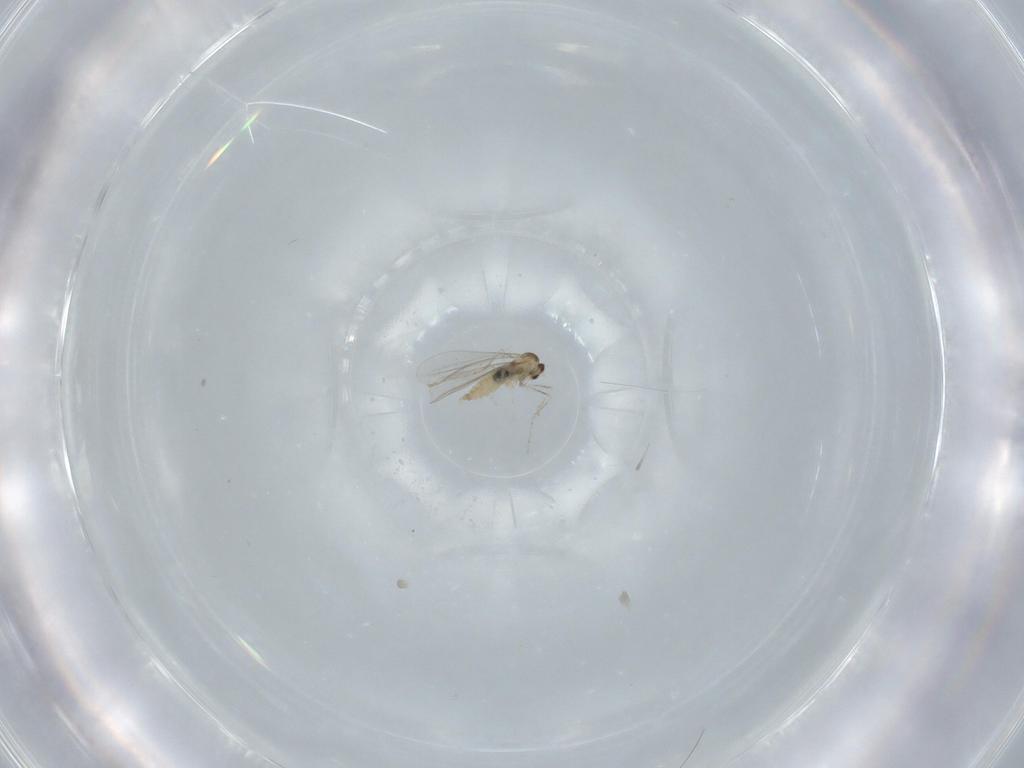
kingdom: Animalia
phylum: Arthropoda
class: Insecta
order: Diptera
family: Cecidomyiidae
